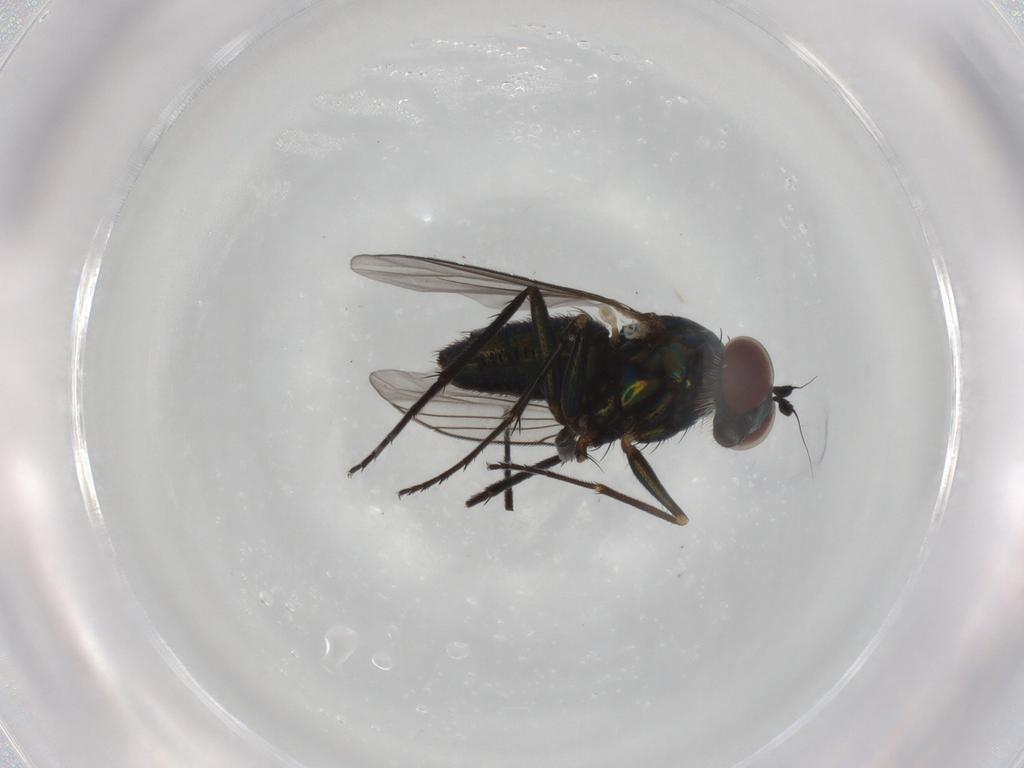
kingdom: Animalia
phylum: Arthropoda
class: Insecta
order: Diptera
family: Dolichopodidae
